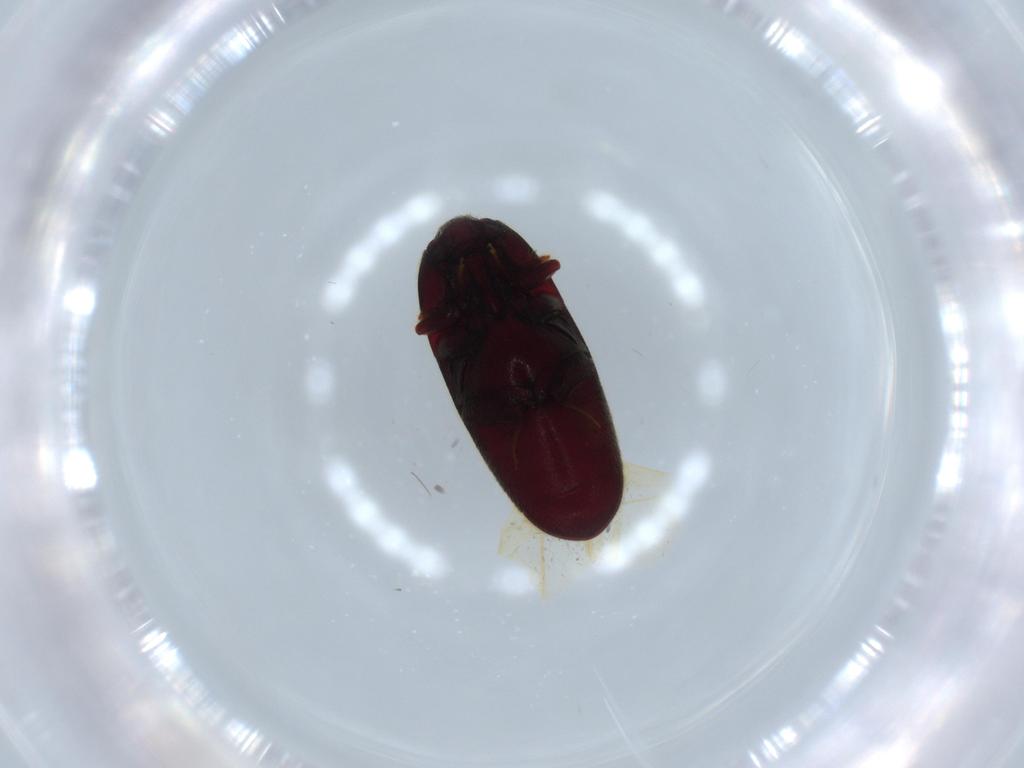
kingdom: Animalia
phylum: Arthropoda
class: Insecta
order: Coleoptera
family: Throscidae
